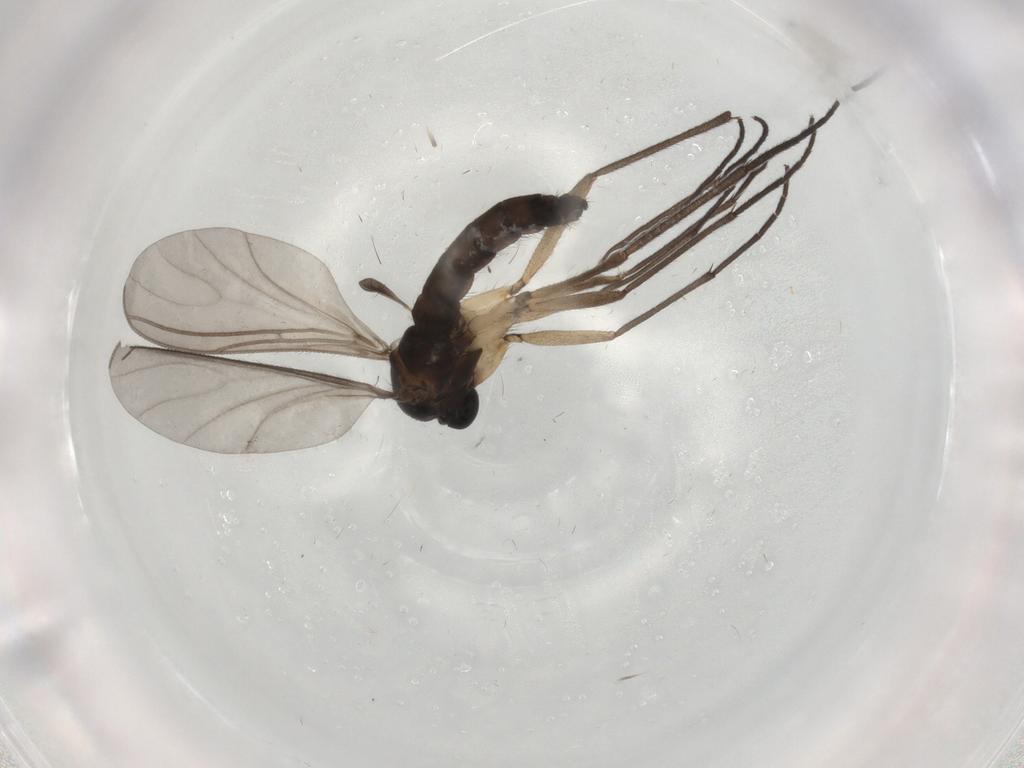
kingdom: Animalia
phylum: Arthropoda
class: Insecta
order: Diptera
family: Sciaridae
